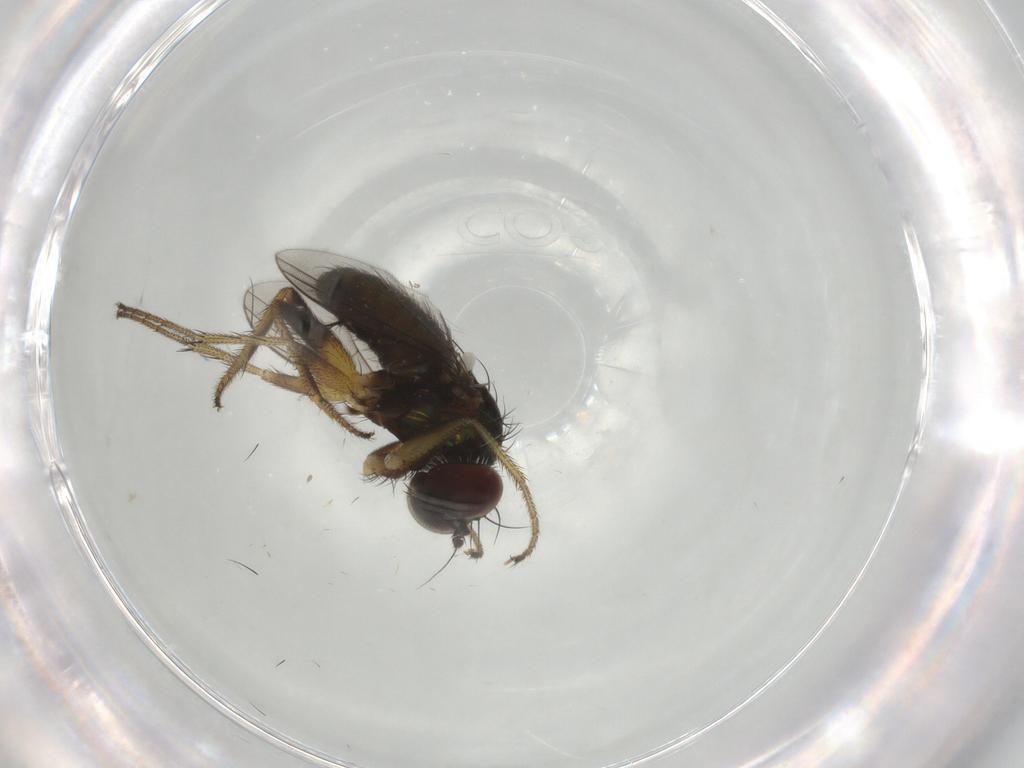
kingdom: Animalia
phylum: Arthropoda
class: Insecta
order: Diptera
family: Dolichopodidae
